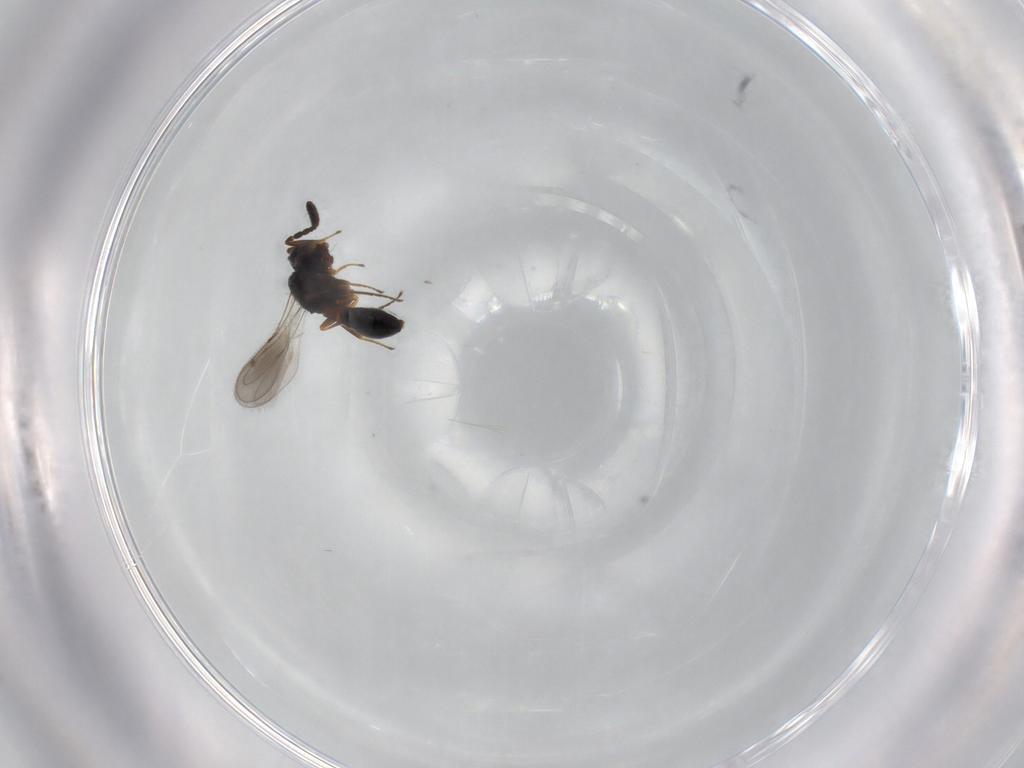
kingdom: Animalia
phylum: Arthropoda
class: Insecta
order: Hymenoptera
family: Scelionidae
